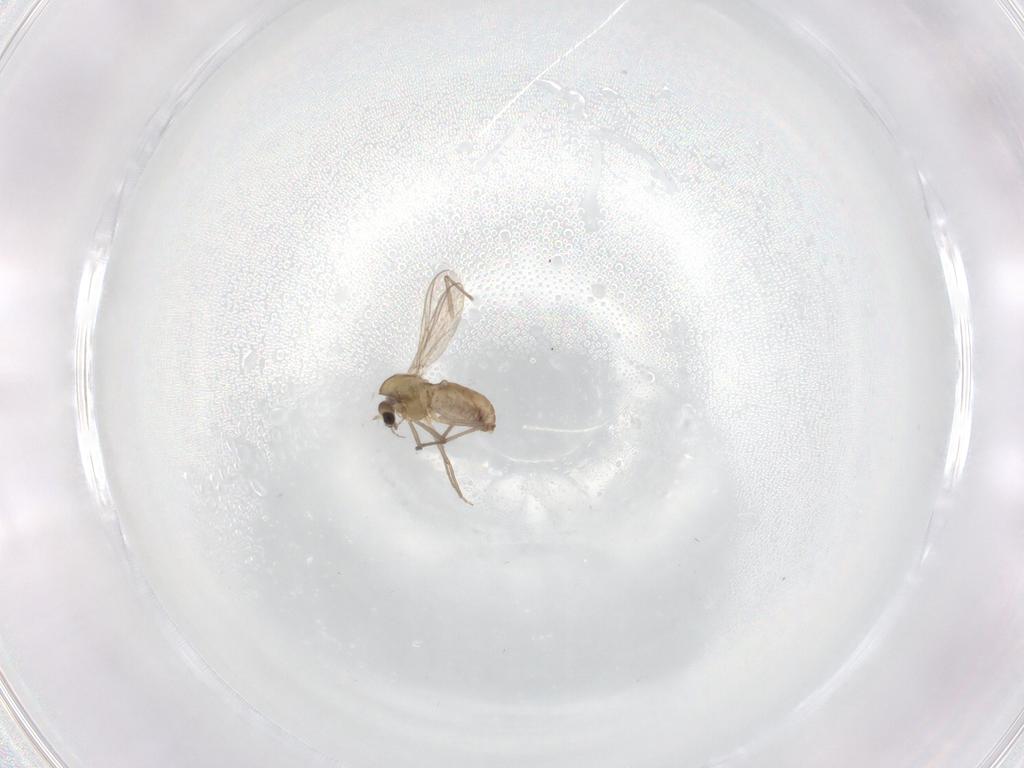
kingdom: Animalia
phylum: Arthropoda
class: Insecta
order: Diptera
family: Chironomidae
